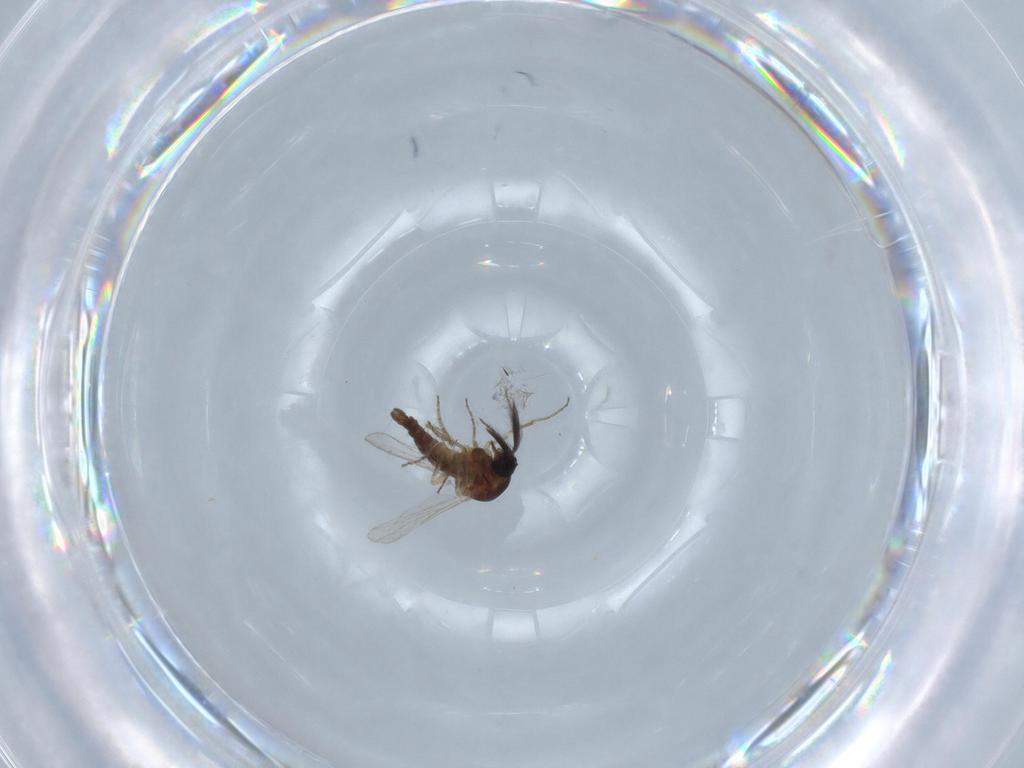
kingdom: Animalia
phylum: Arthropoda
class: Insecta
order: Diptera
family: Ceratopogonidae
